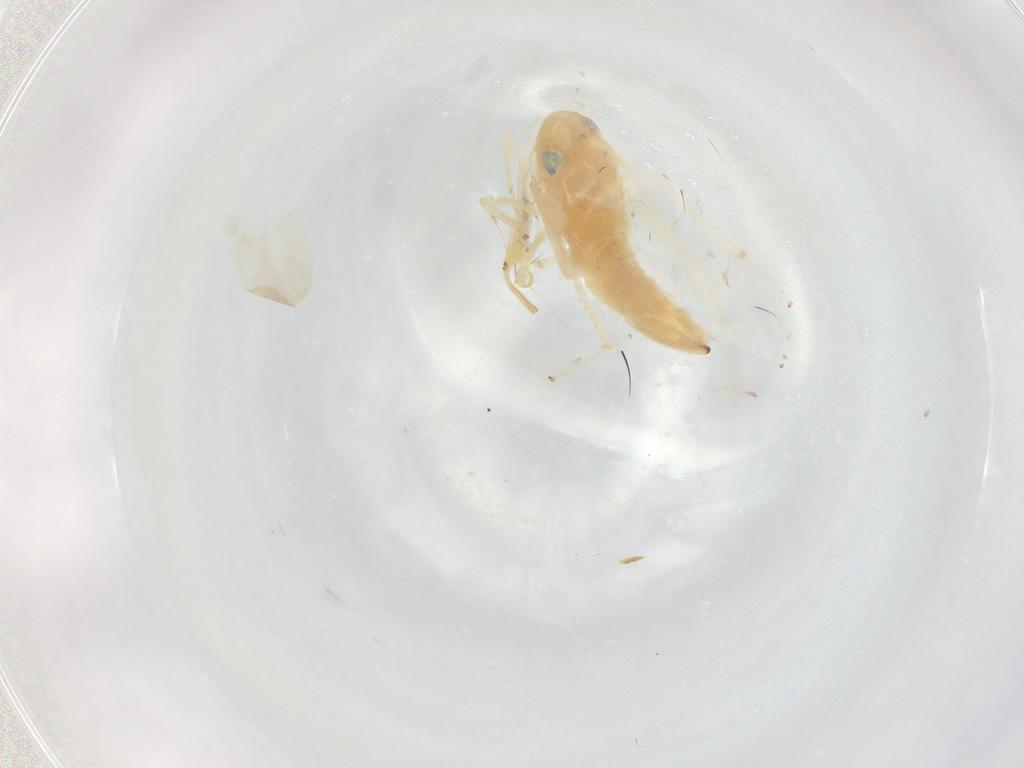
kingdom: Animalia
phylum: Arthropoda
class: Insecta
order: Hemiptera
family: Cicadellidae
